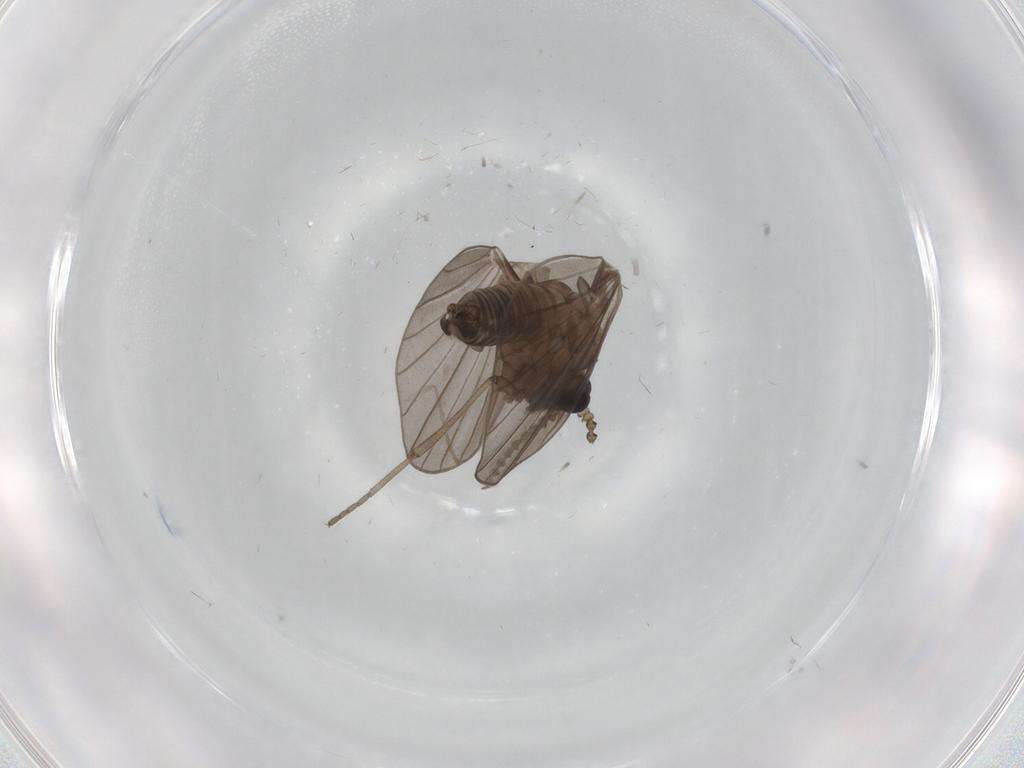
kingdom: Animalia
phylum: Arthropoda
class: Insecta
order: Diptera
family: Psychodidae
